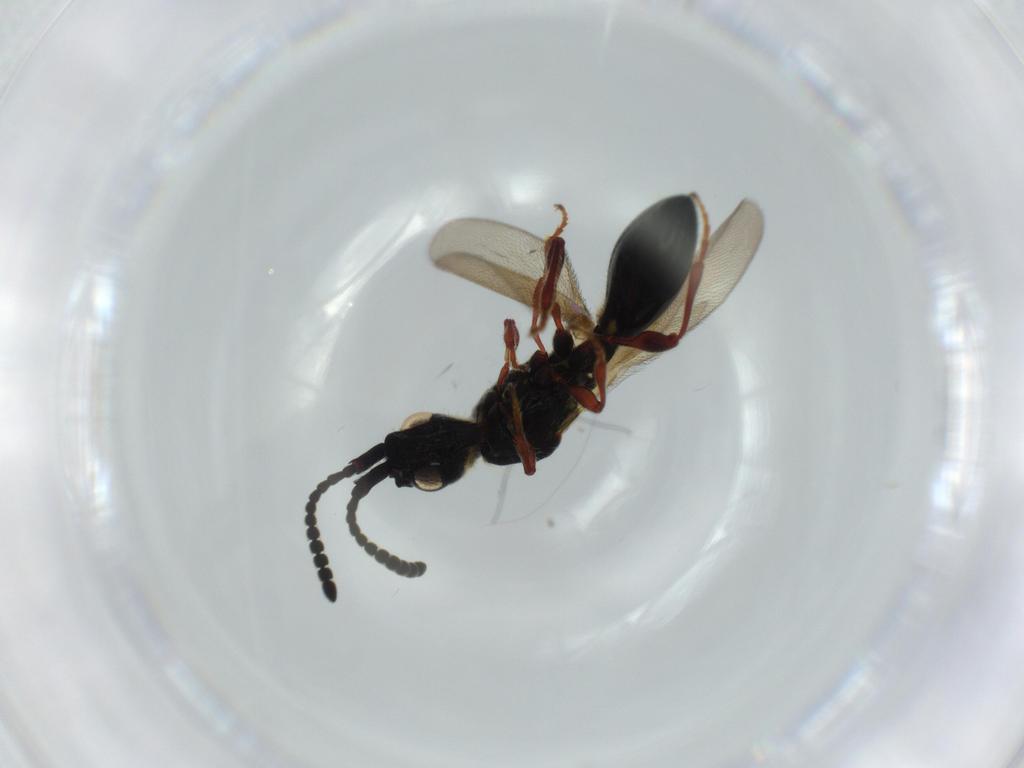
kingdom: Animalia
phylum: Arthropoda
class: Insecta
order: Hymenoptera
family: Diapriidae
